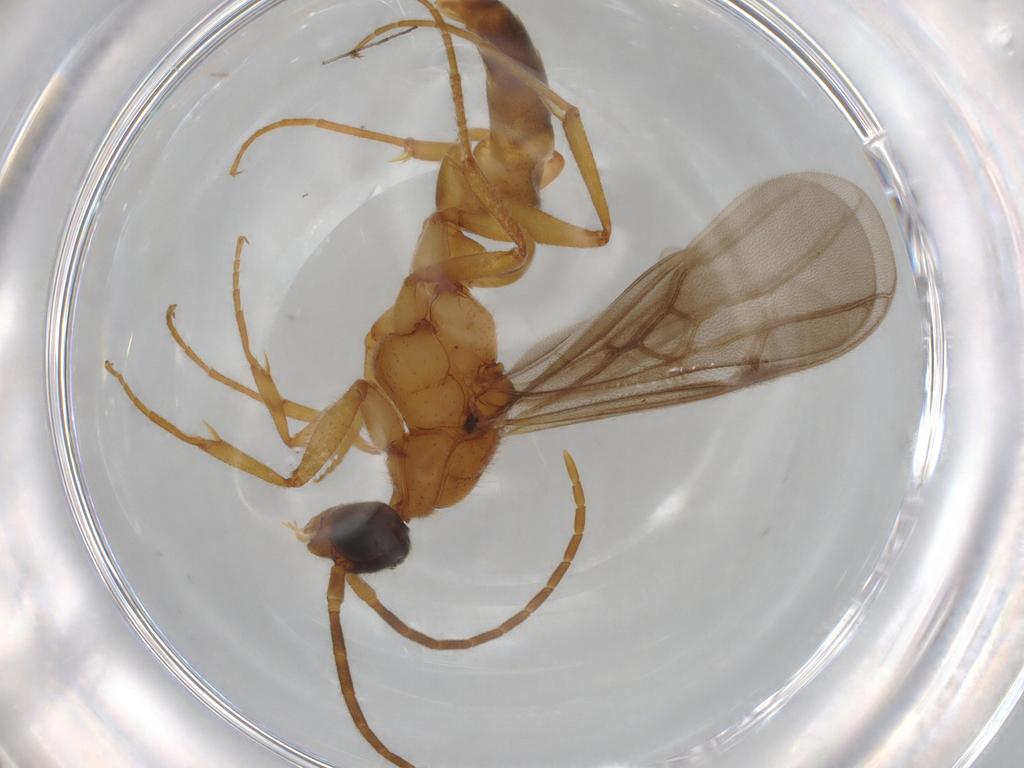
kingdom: Animalia
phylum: Arthropoda
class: Insecta
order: Hymenoptera
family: Formicidae
